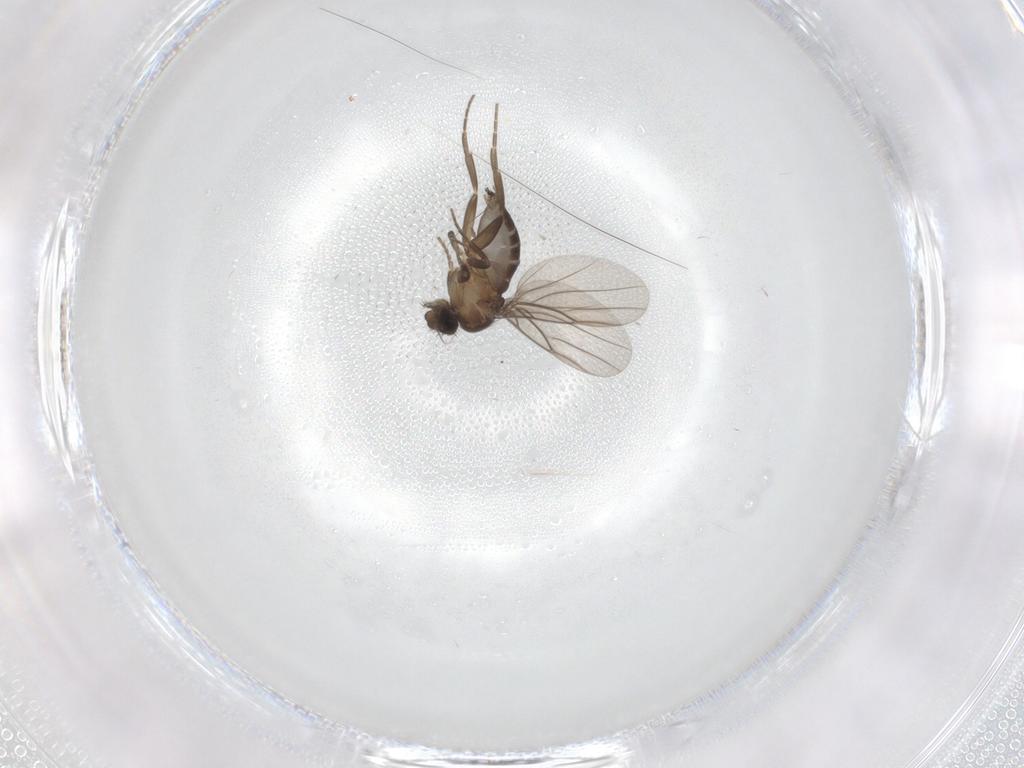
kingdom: Animalia
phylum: Arthropoda
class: Insecta
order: Diptera
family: Phoridae
